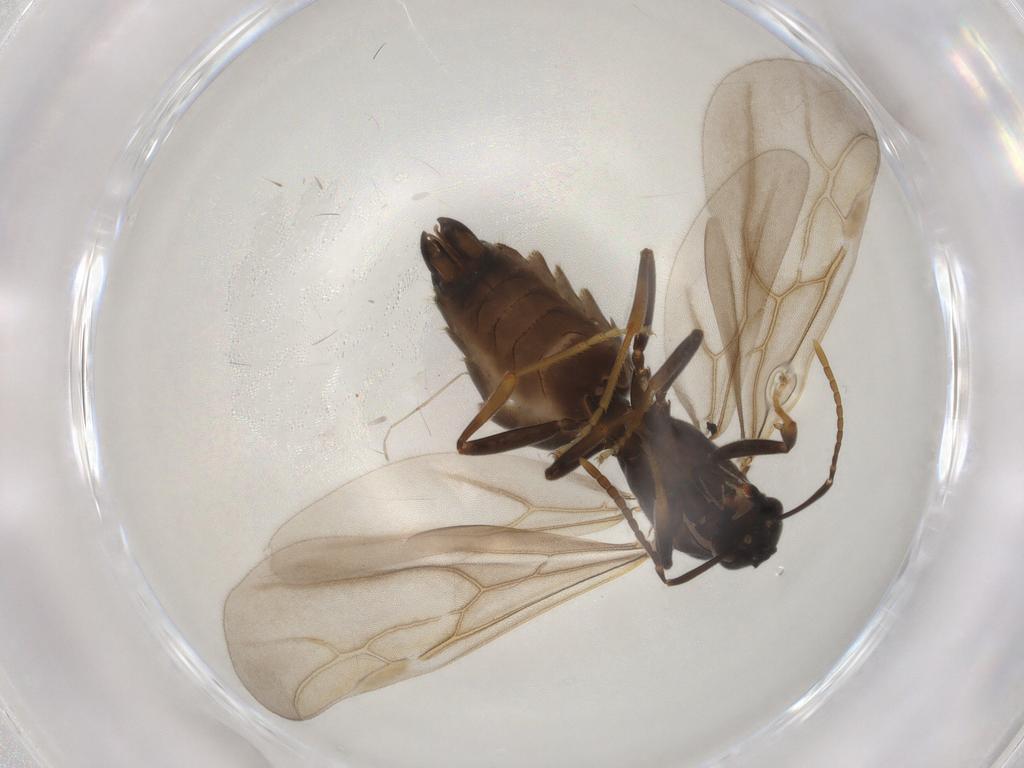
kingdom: Animalia
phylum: Arthropoda
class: Insecta
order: Hymenoptera
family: Formicidae
